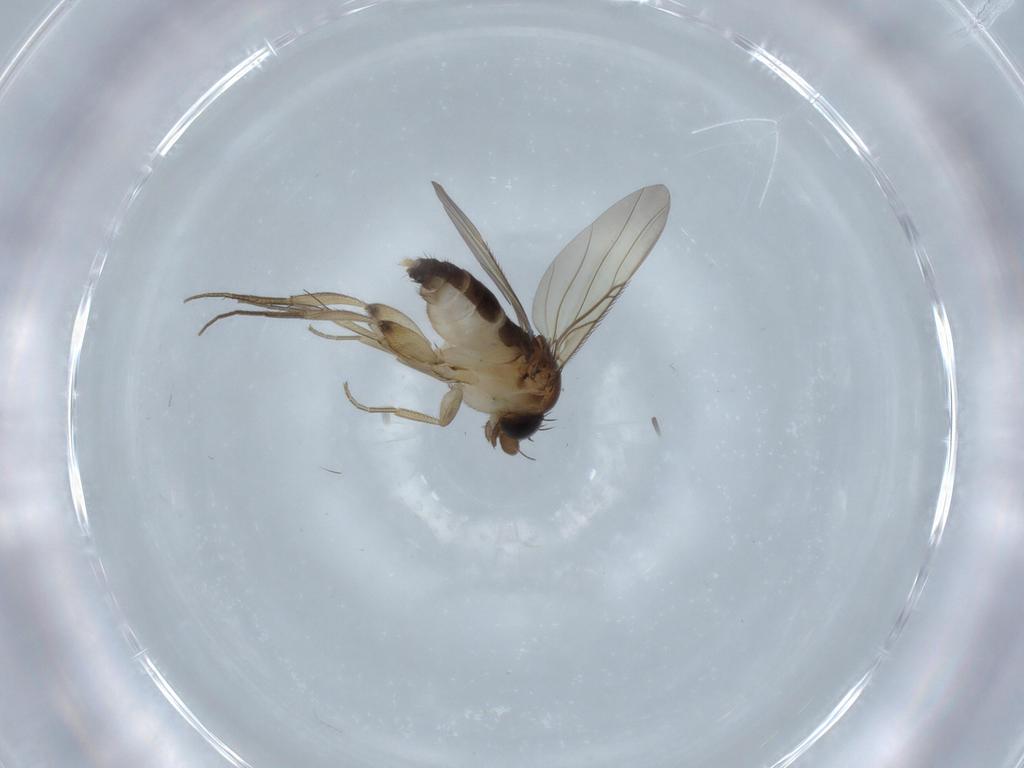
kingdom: Animalia
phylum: Arthropoda
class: Insecta
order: Diptera
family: Phoridae
